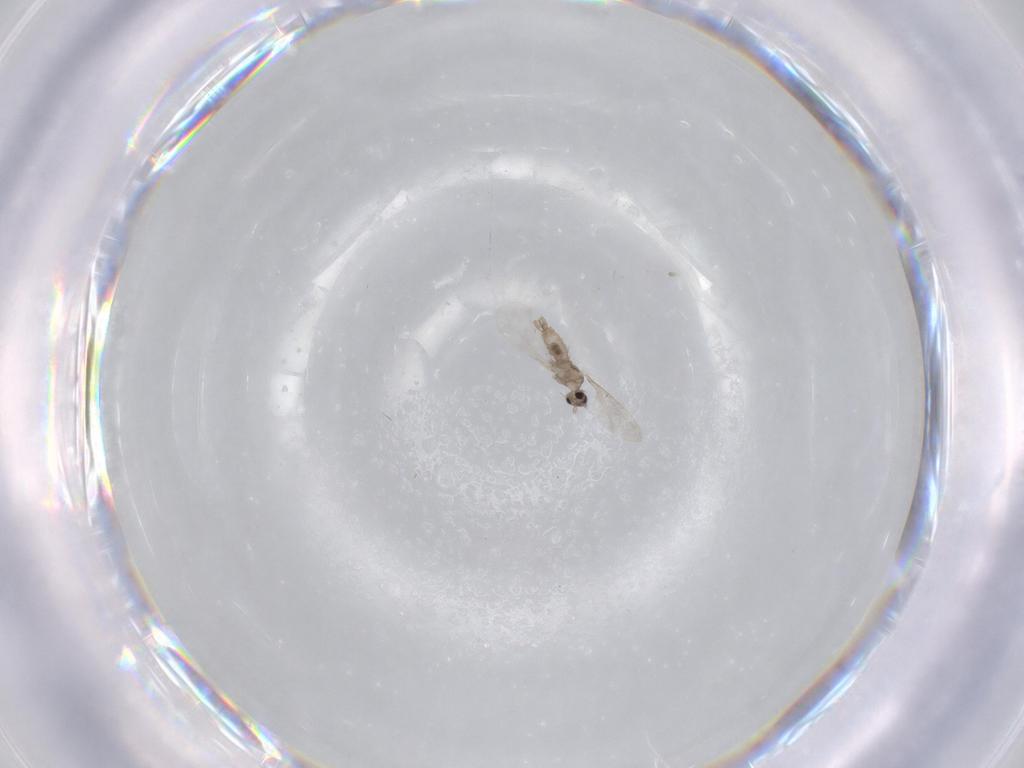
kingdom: Animalia
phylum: Arthropoda
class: Insecta
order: Diptera
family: Cecidomyiidae
